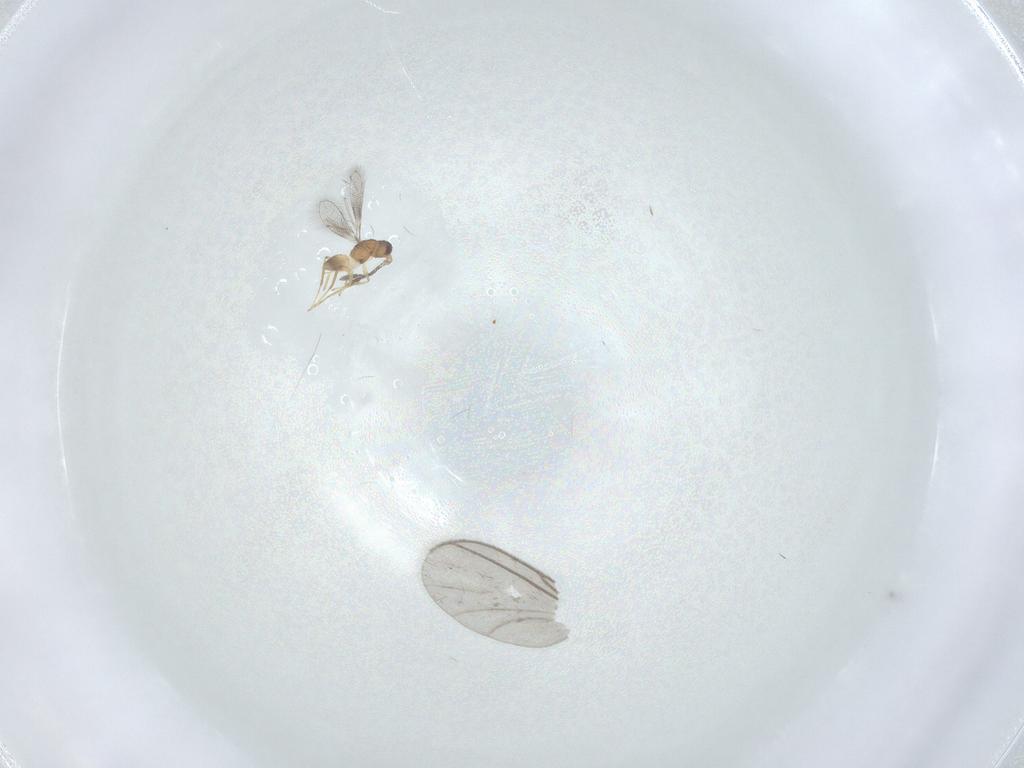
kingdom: Animalia
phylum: Arthropoda
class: Insecta
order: Hymenoptera
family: Mymaridae
